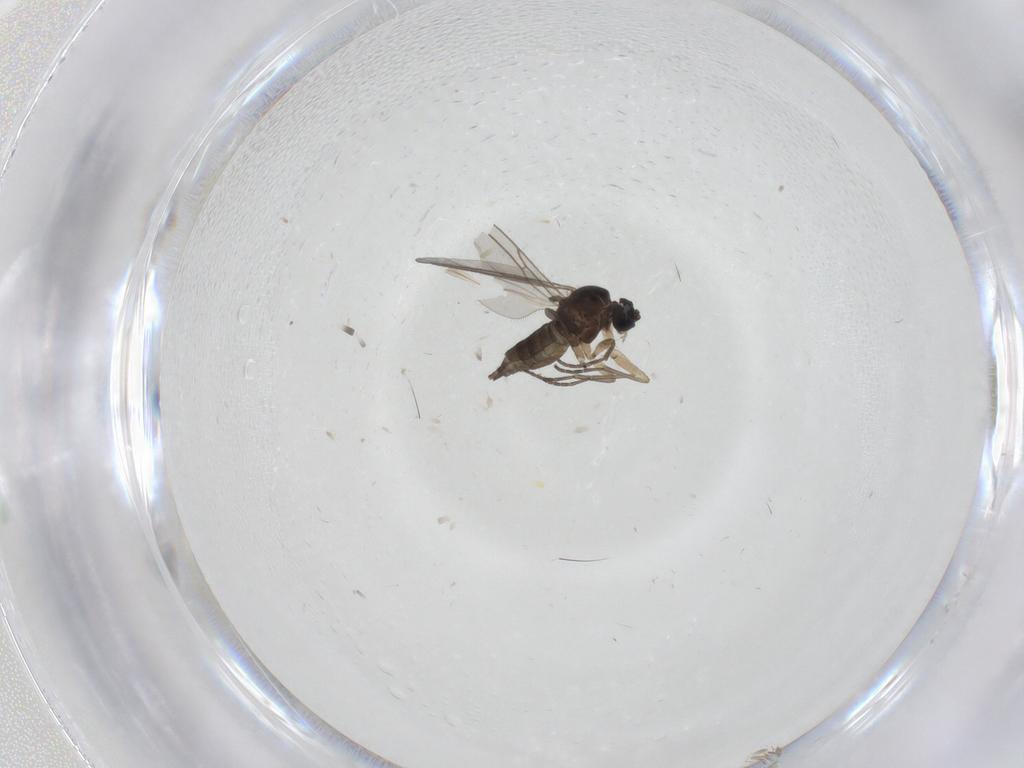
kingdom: Animalia
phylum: Arthropoda
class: Insecta
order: Diptera
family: Sciaridae
